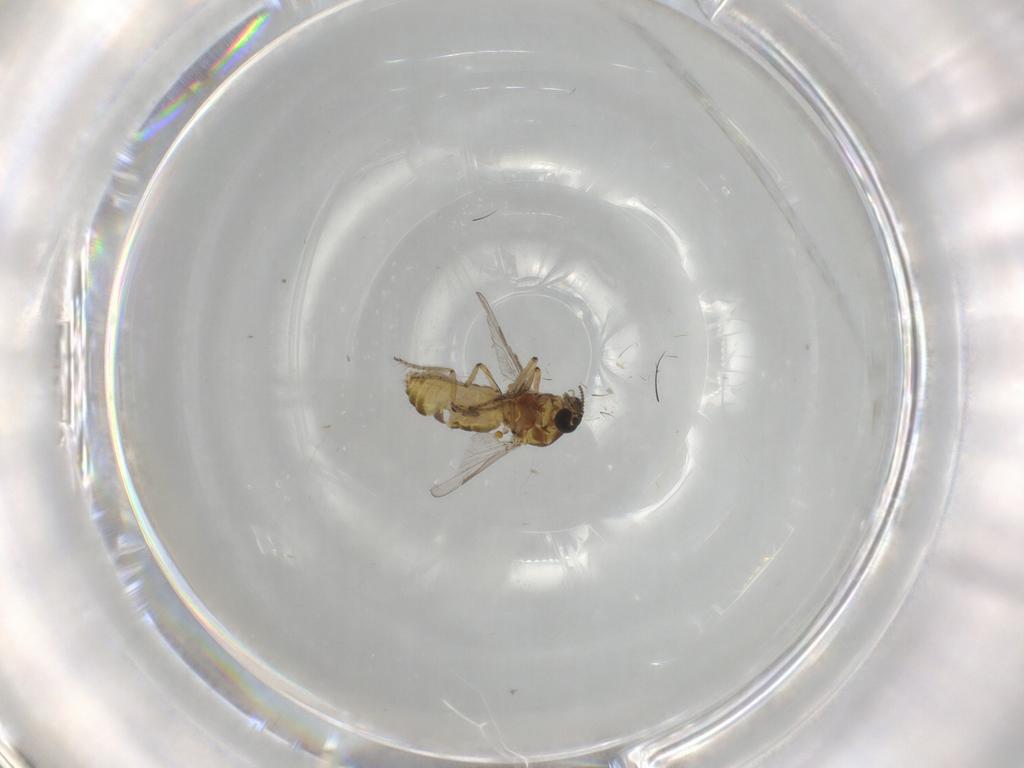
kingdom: Animalia
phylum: Arthropoda
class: Insecta
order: Diptera
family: Ceratopogonidae
